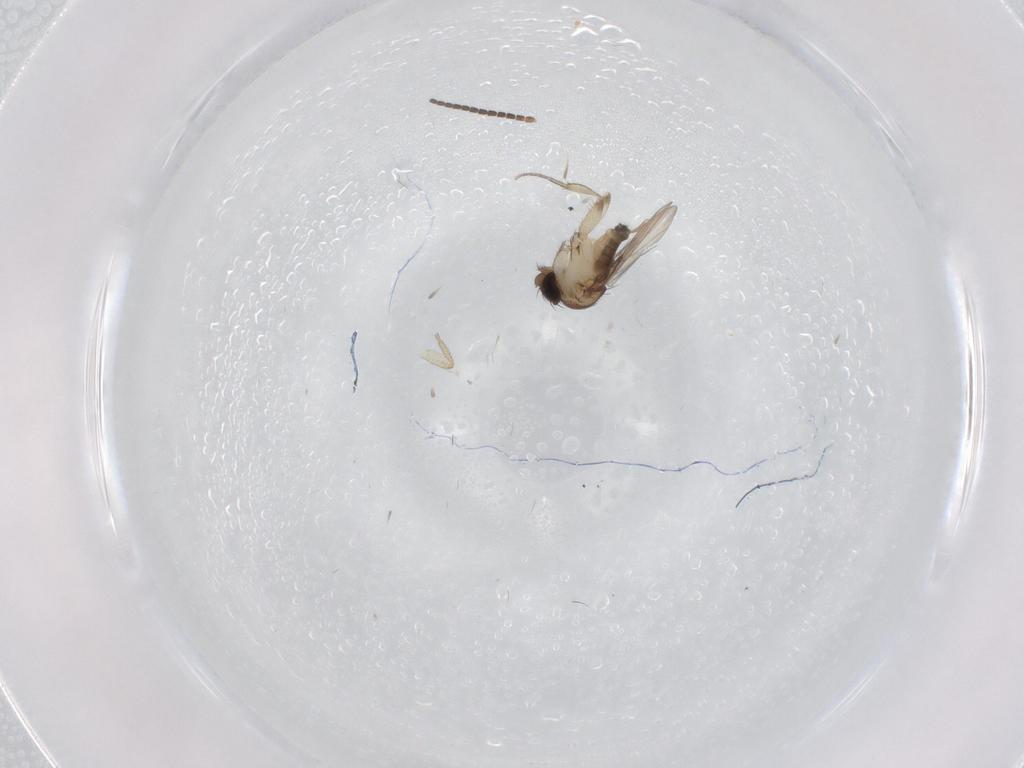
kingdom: Animalia
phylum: Arthropoda
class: Insecta
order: Diptera
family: Sciaridae
